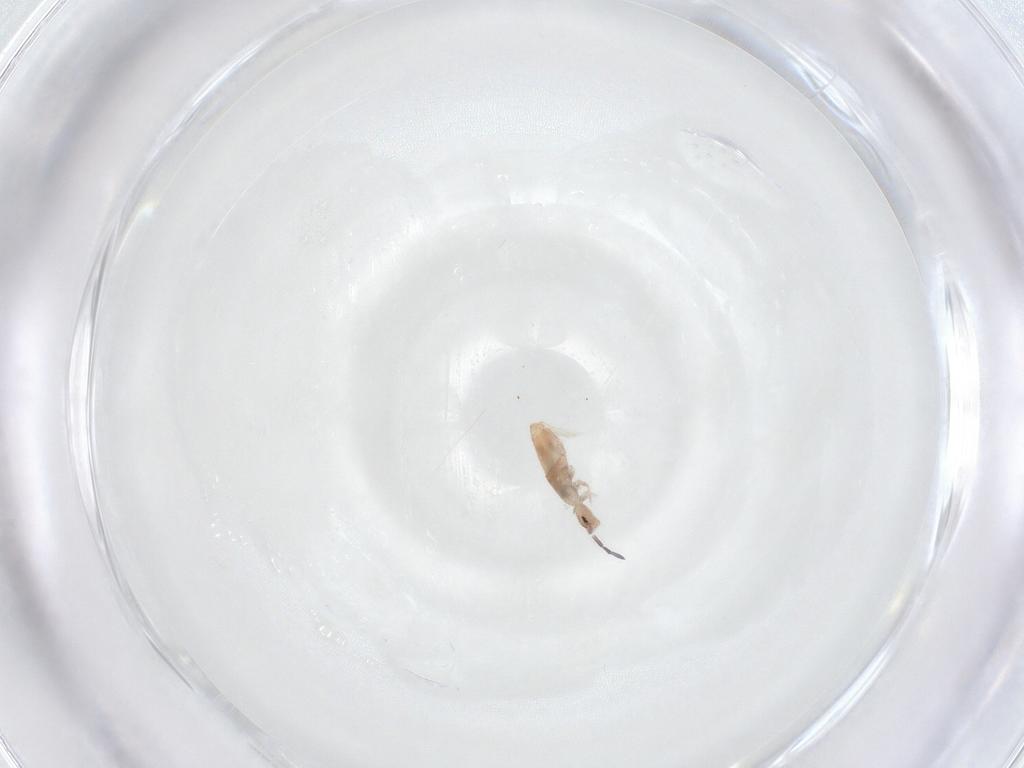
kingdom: Animalia
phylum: Arthropoda
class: Collembola
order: Entomobryomorpha
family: Entomobryidae
